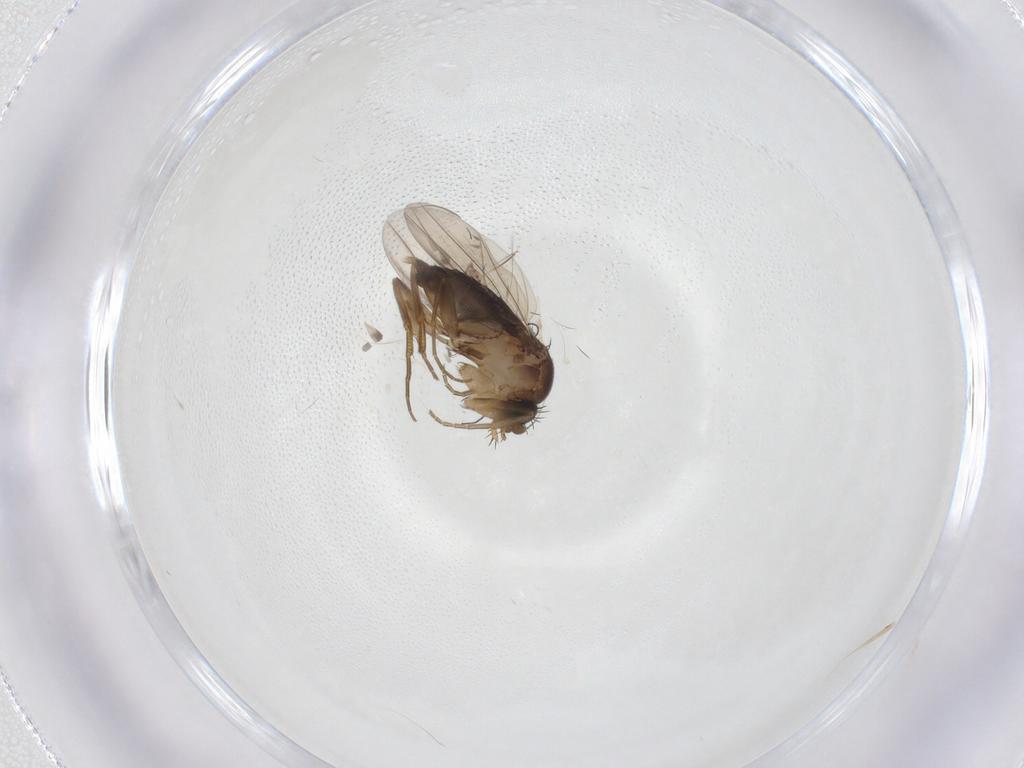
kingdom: Animalia
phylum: Arthropoda
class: Insecta
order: Diptera
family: Phoridae
